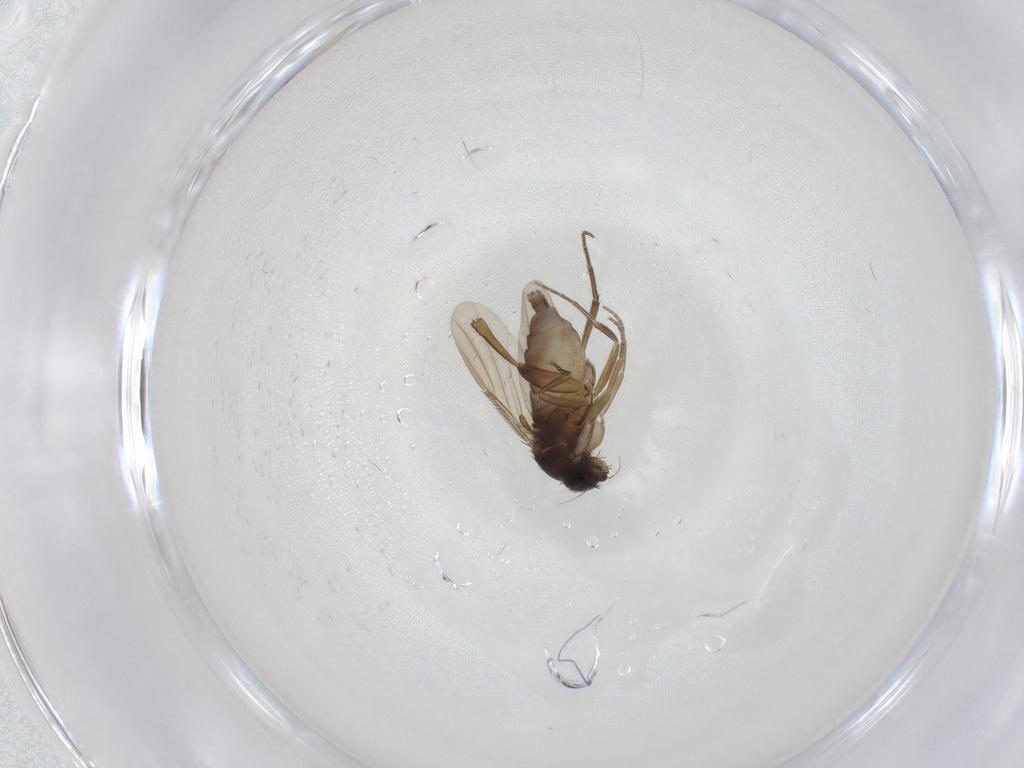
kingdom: Animalia
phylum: Arthropoda
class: Insecta
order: Diptera
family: Phoridae
